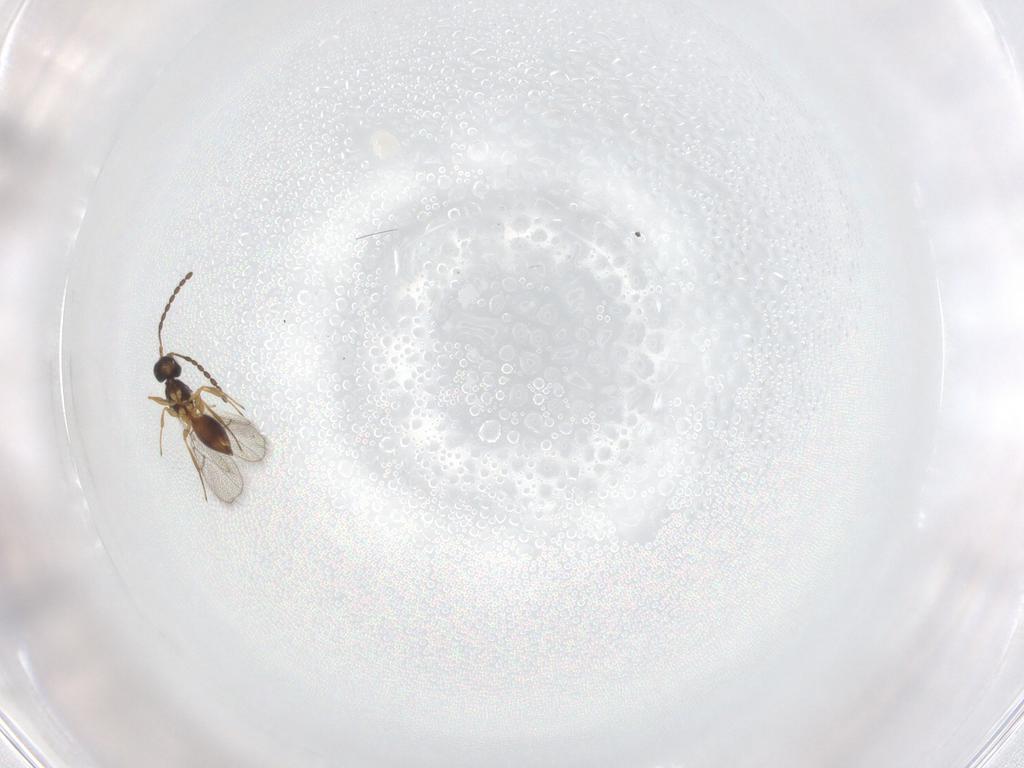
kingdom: Animalia
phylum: Arthropoda
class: Insecta
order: Hymenoptera
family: Figitidae
